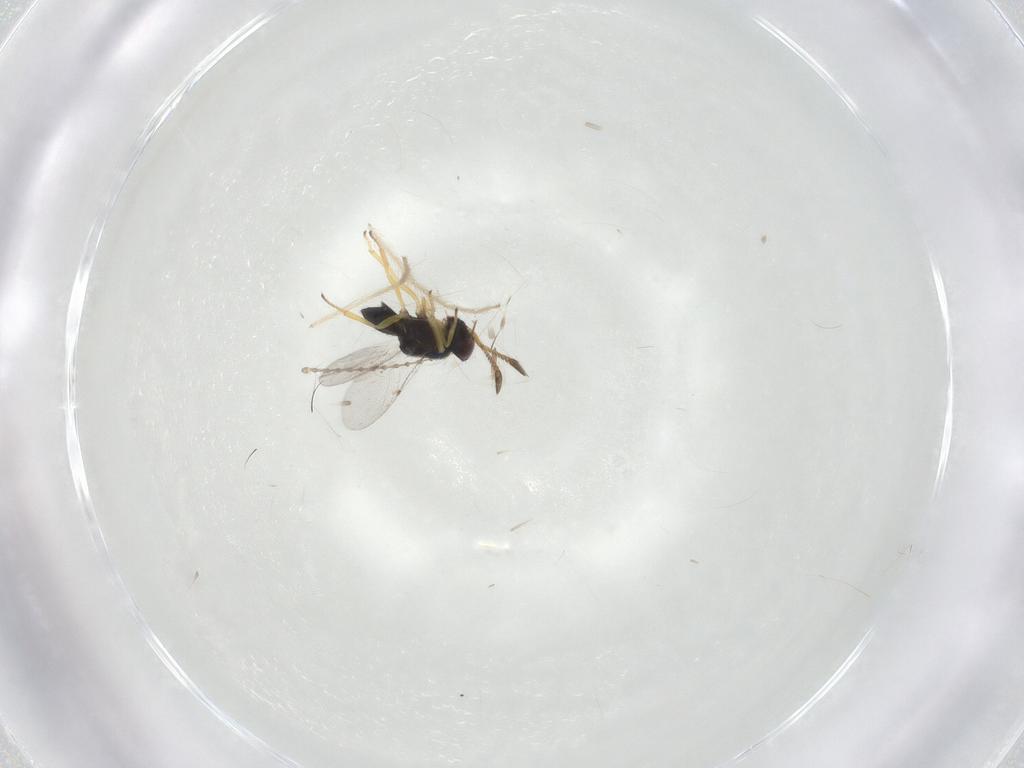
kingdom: Animalia
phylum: Arthropoda
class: Insecta
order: Hymenoptera
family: Encyrtidae
